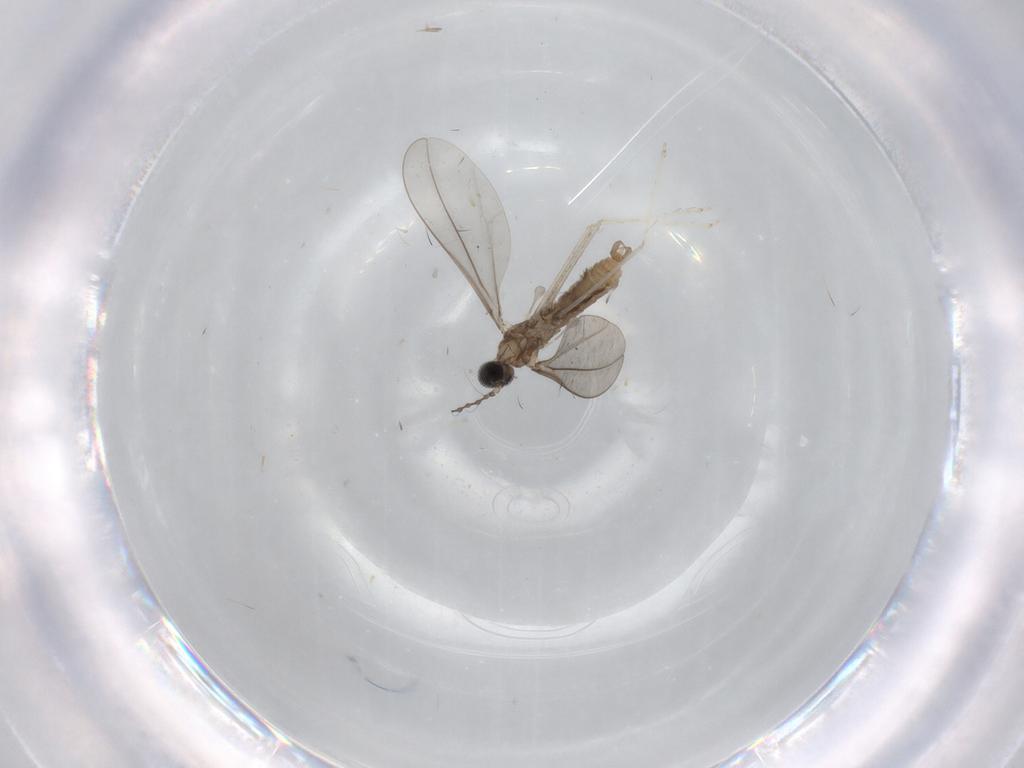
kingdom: Animalia
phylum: Arthropoda
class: Insecta
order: Diptera
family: Cecidomyiidae
